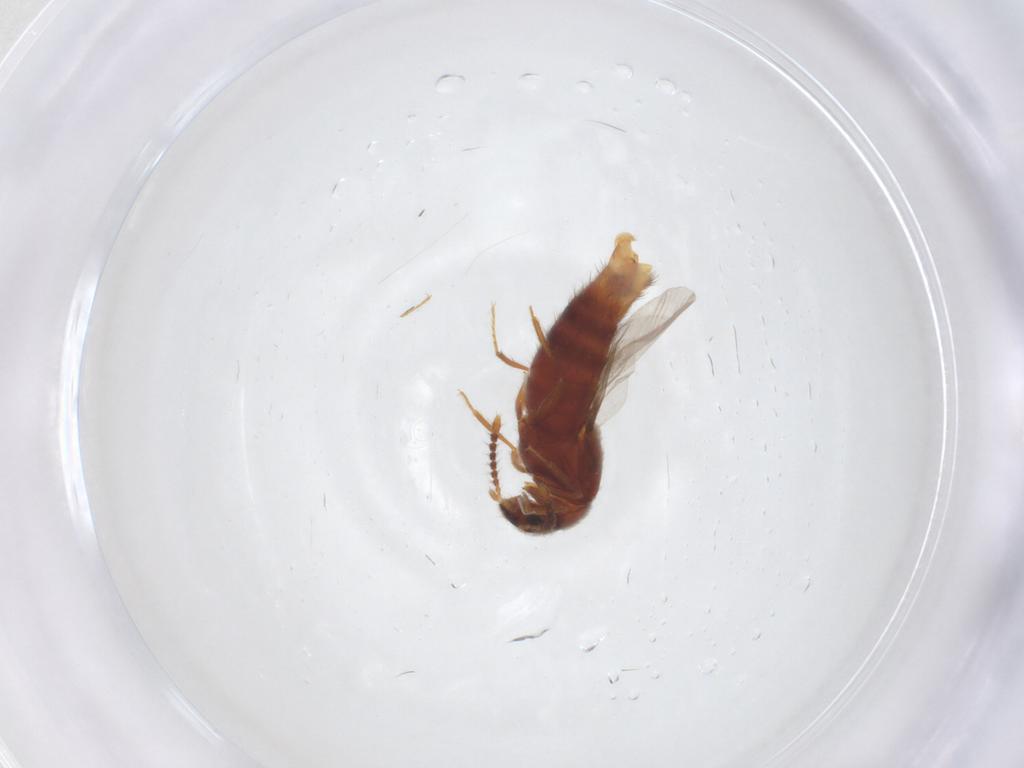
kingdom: Animalia
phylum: Arthropoda
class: Insecta
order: Coleoptera
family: Staphylinidae
